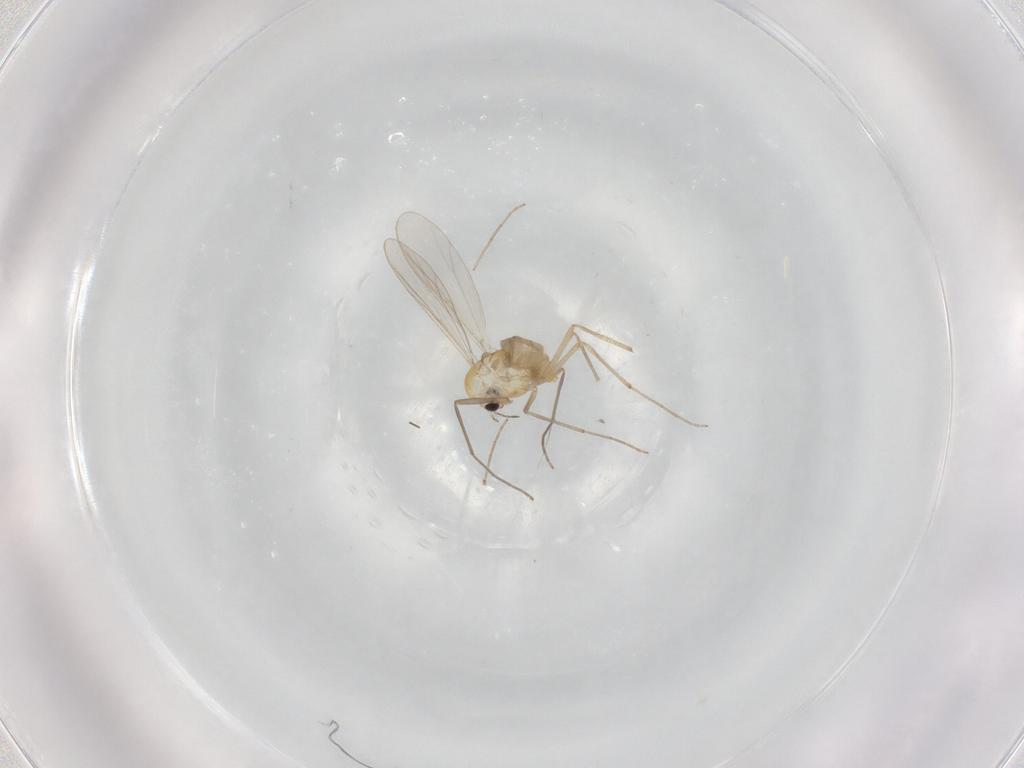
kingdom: Animalia
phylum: Arthropoda
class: Insecta
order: Diptera
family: Chironomidae
